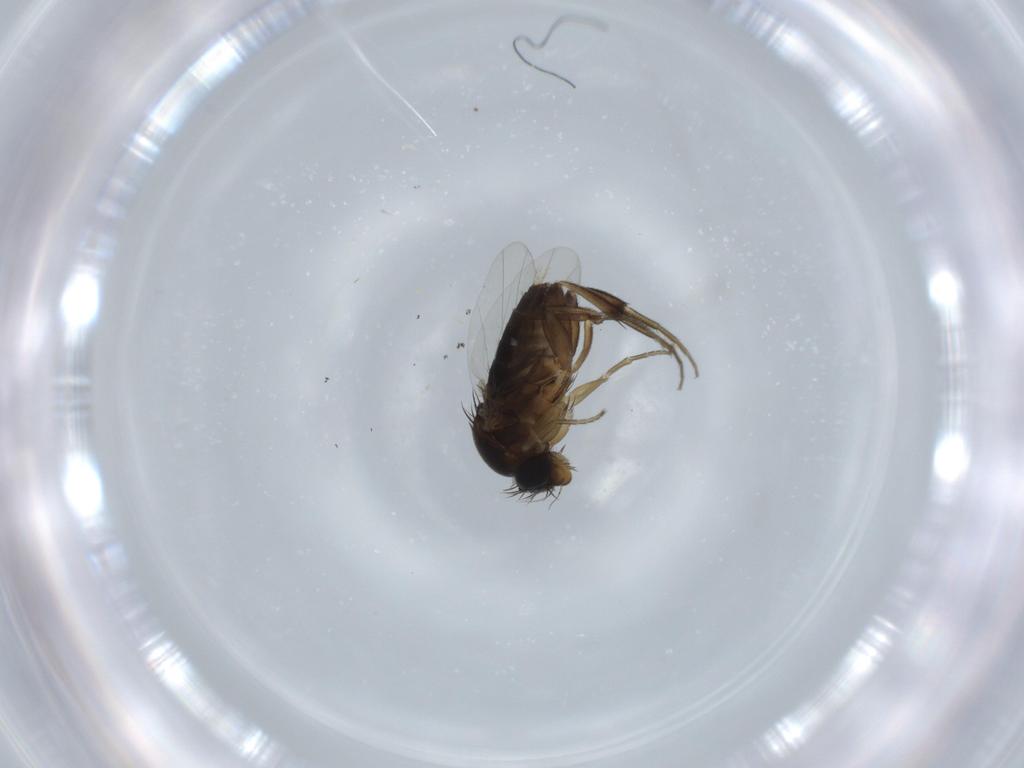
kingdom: Animalia
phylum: Arthropoda
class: Insecta
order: Diptera
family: Phoridae
